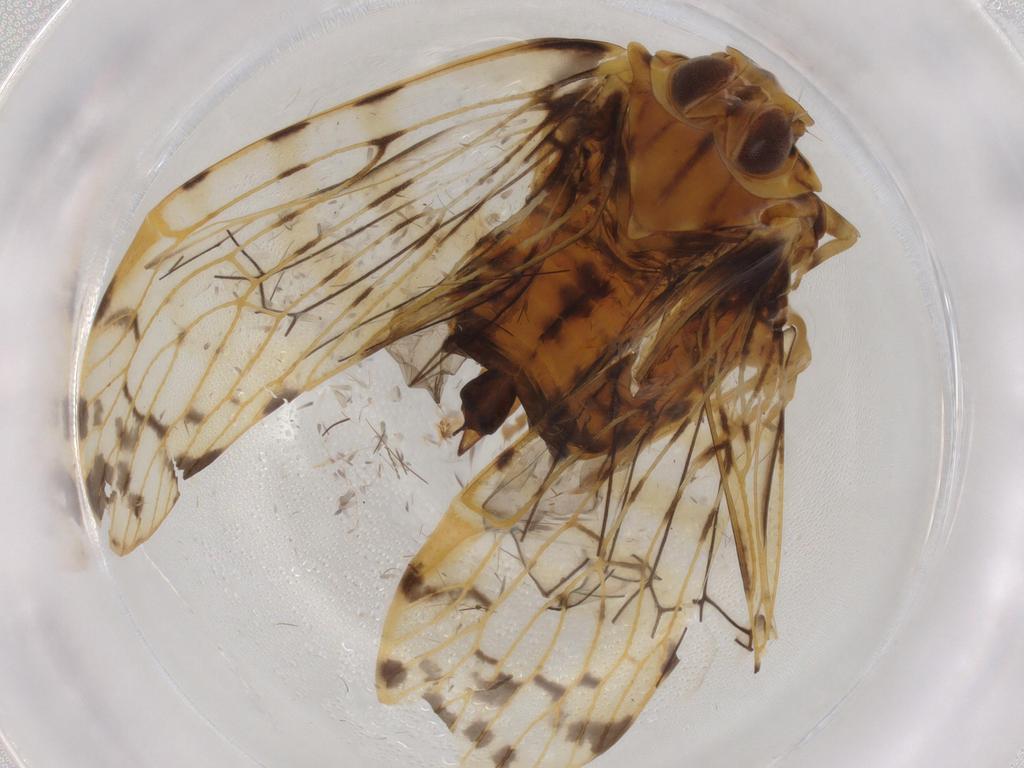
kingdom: Animalia
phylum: Arthropoda
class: Insecta
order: Hemiptera
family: Cixiidae
